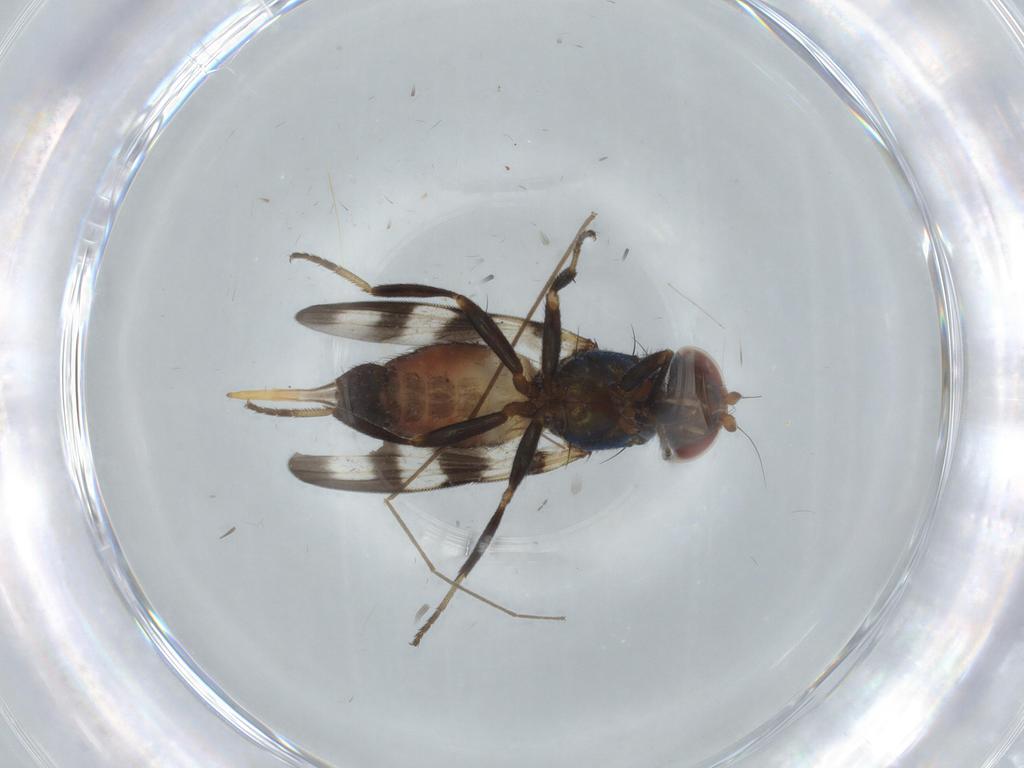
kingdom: Animalia
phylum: Arthropoda
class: Insecta
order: Diptera
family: Ulidiidae
